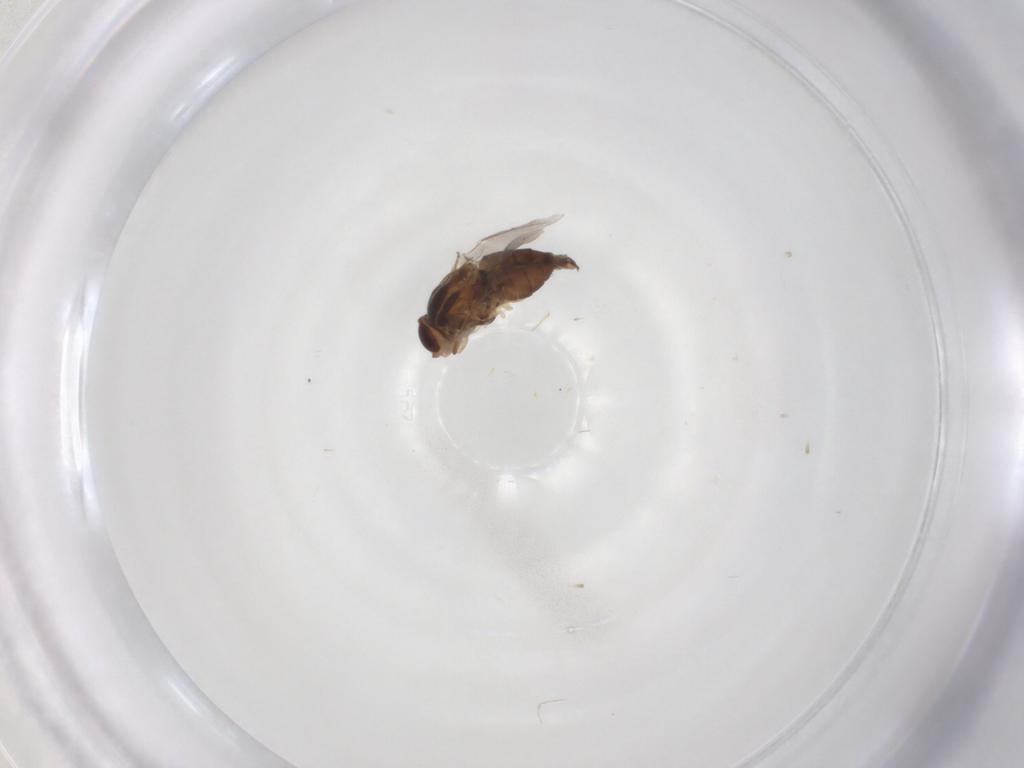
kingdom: Animalia
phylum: Arthropoda
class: Insecta
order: Diptera
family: Chloropidae
